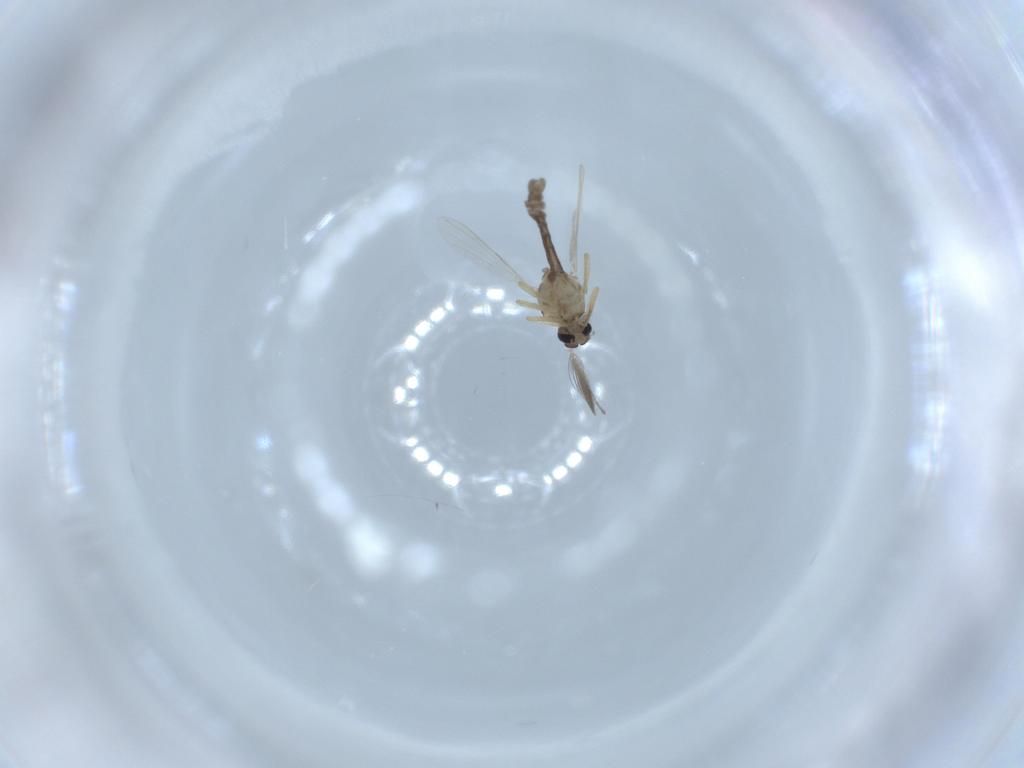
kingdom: Animalia
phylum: Arthropoda
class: Insecta
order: Diptera
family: Ceratopogonidae
